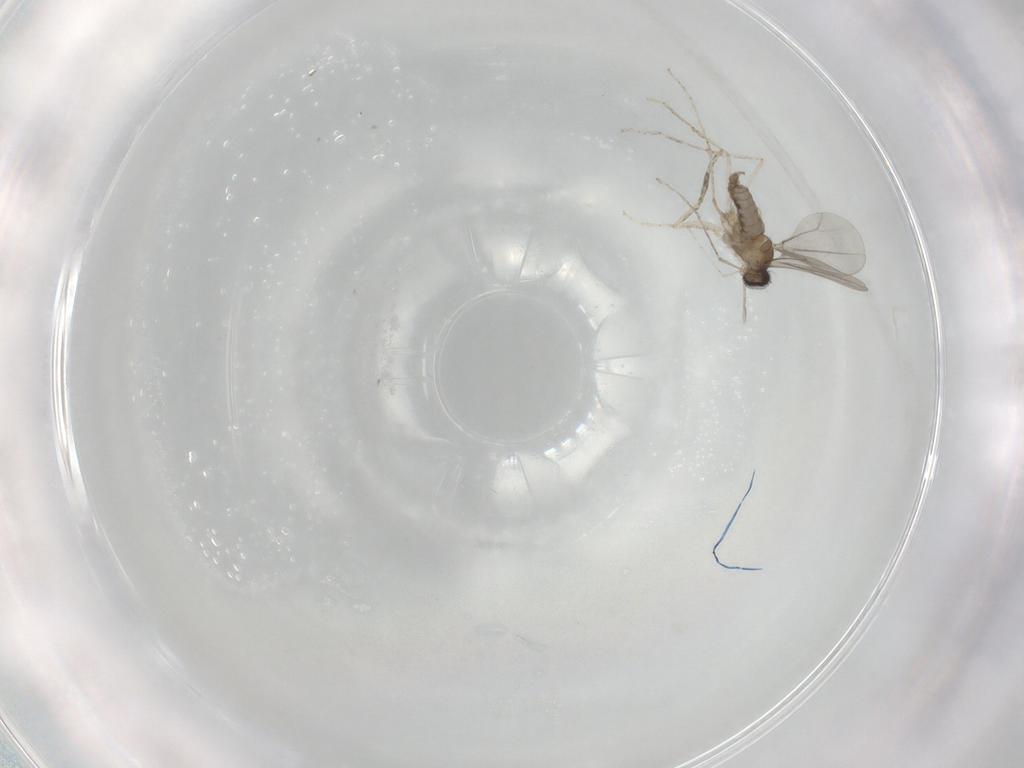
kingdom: Animalia
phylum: Arthropoda
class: Insecta
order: Diptera
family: Cecidomyiidae
